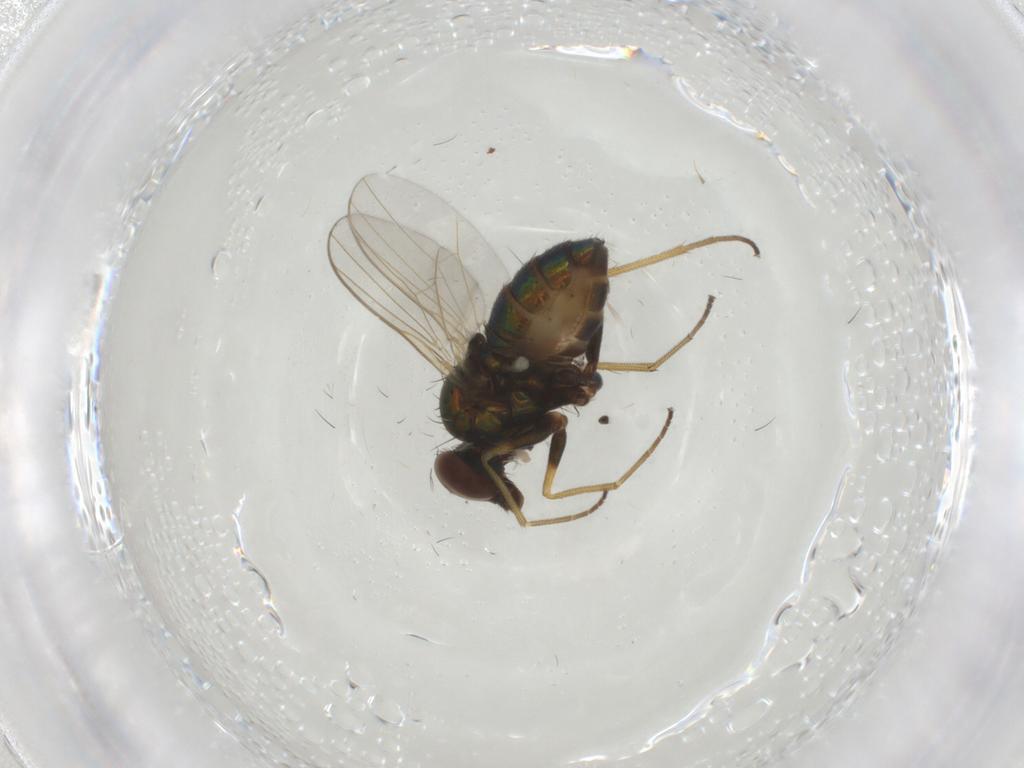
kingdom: Animalia
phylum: Arthropoda
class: Insecta
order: Diptera
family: Dolichopodidae
